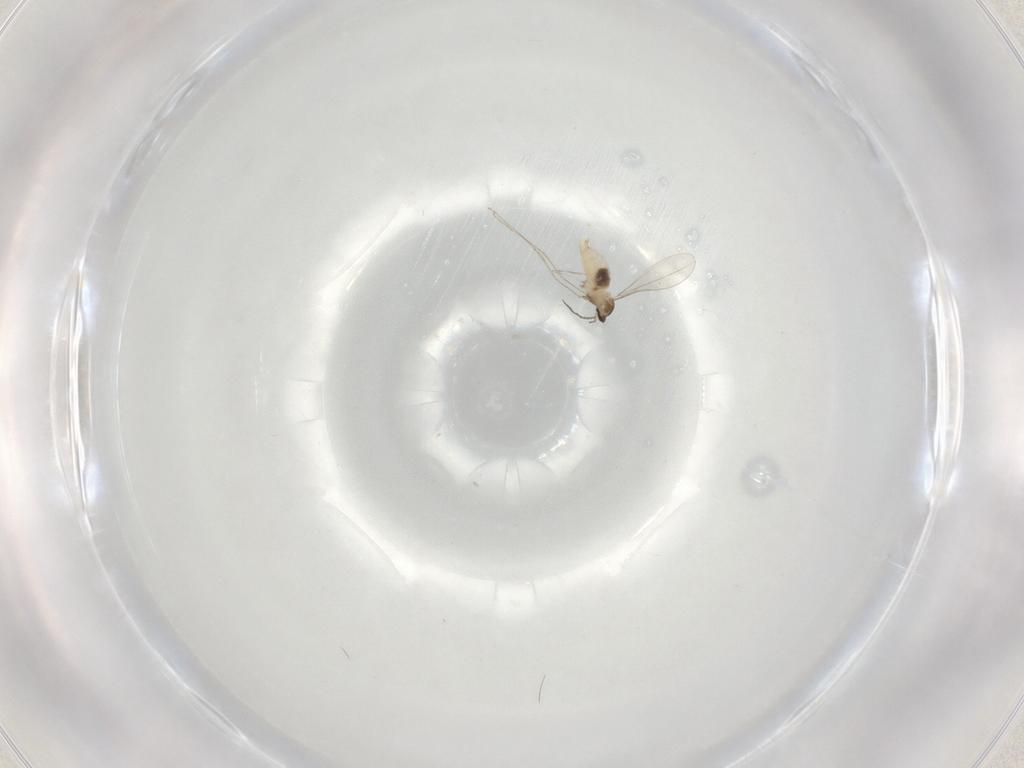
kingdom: Animalia
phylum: Arthropoda
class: Insecta
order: Diptera
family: Cecidomyiidae
